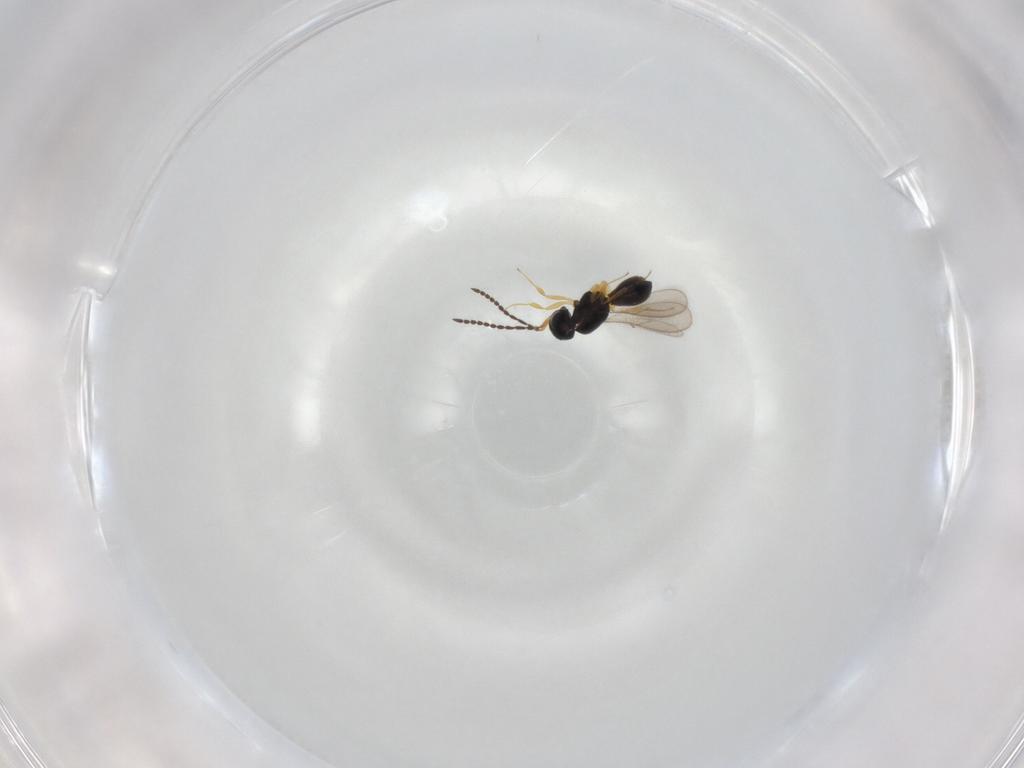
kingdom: Animalia
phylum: Arthropoda
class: Insecta
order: Hymenoptera
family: Scelionidae
